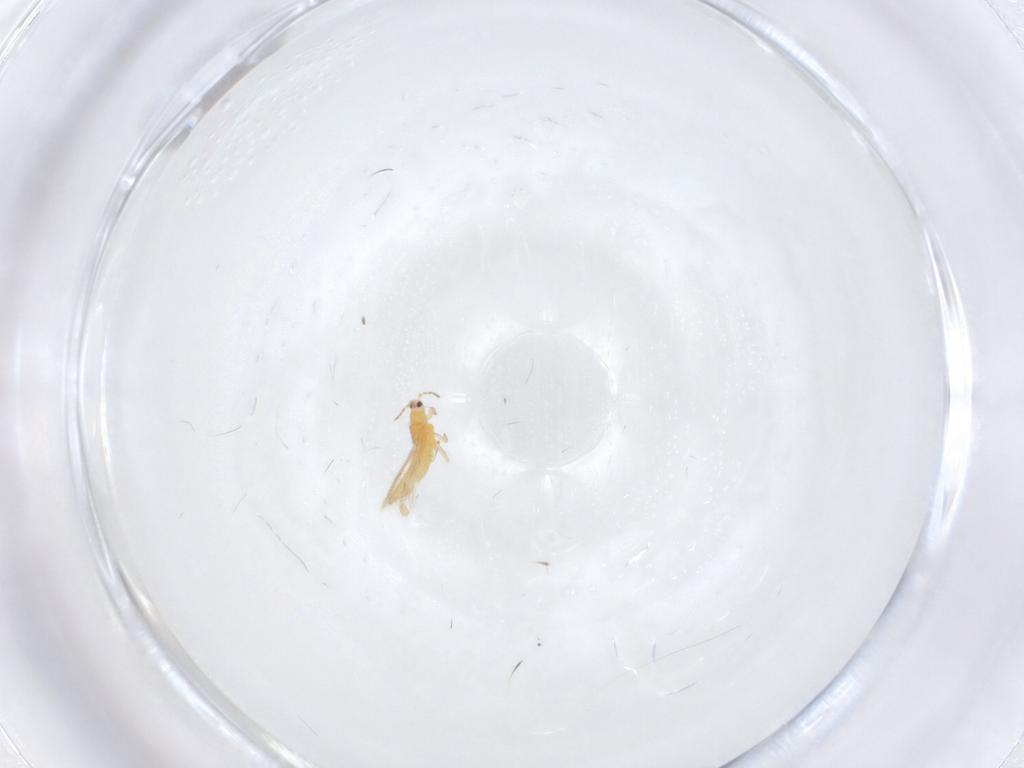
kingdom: Animalia
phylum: Arthropoda
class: Insecta
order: Thysanoptera
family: Thripidae
